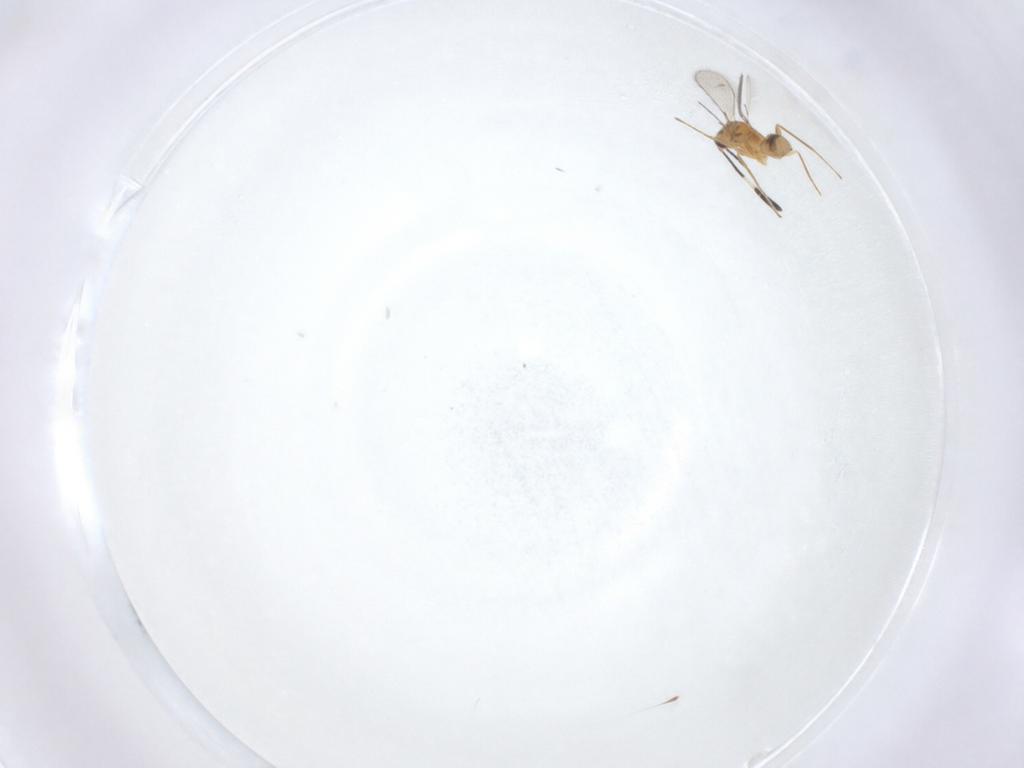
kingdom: Animalia
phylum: Arthropoda
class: Insecta
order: Hymenoptera
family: Mymaridae
